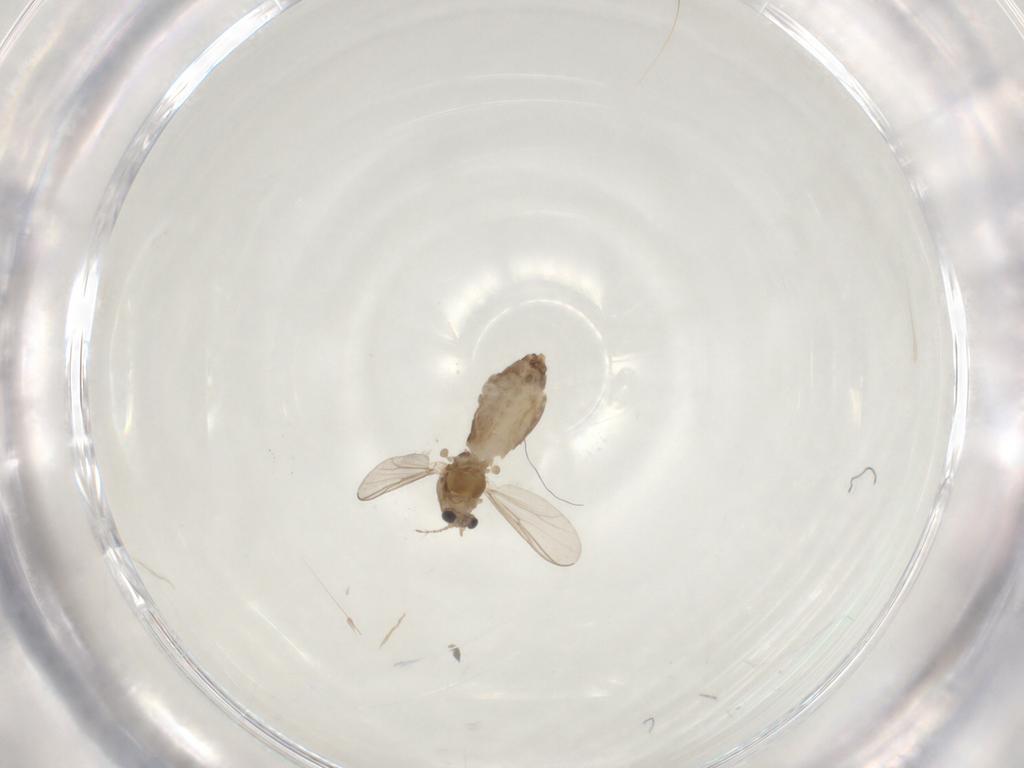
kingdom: Animalia
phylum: Arthropoda
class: Insecta
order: Diptera
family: Chironomidae
